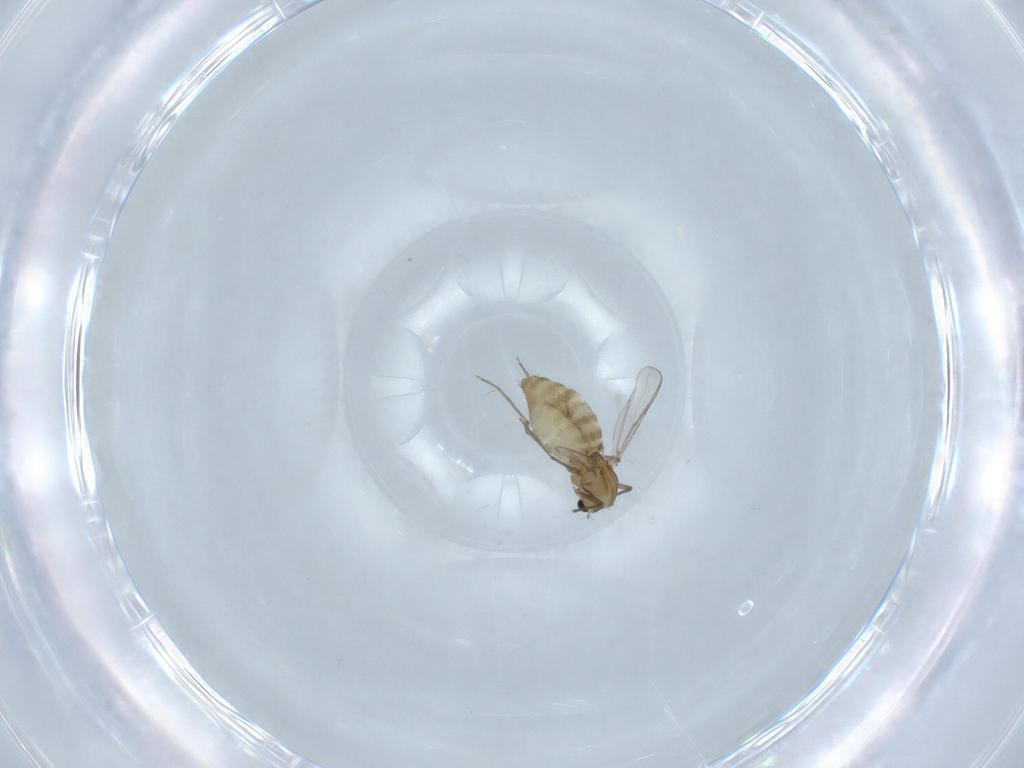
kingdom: Animalia
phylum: Arthropoda
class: Insecta
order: Diptera
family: Chironomidae
